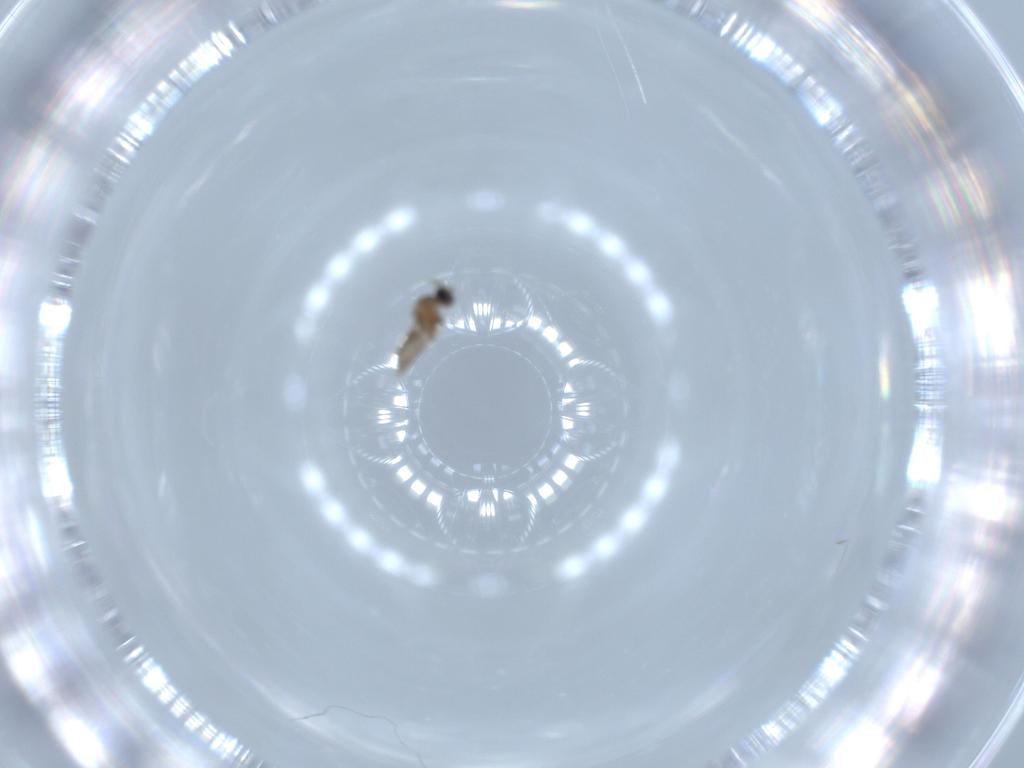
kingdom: Animalia
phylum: Arthropoda
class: Insecta
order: Diptera
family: Cecidomyiidae
